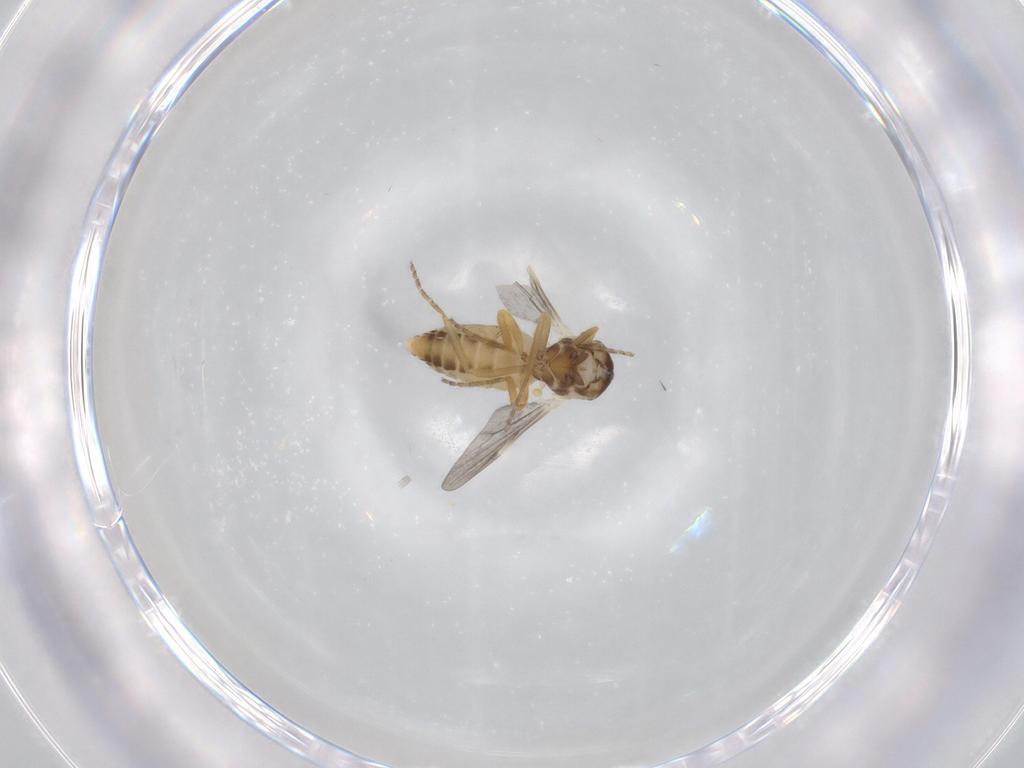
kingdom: Animalia
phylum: Arthropoda
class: Insecta
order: Diptera
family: Ceratopogonidae
